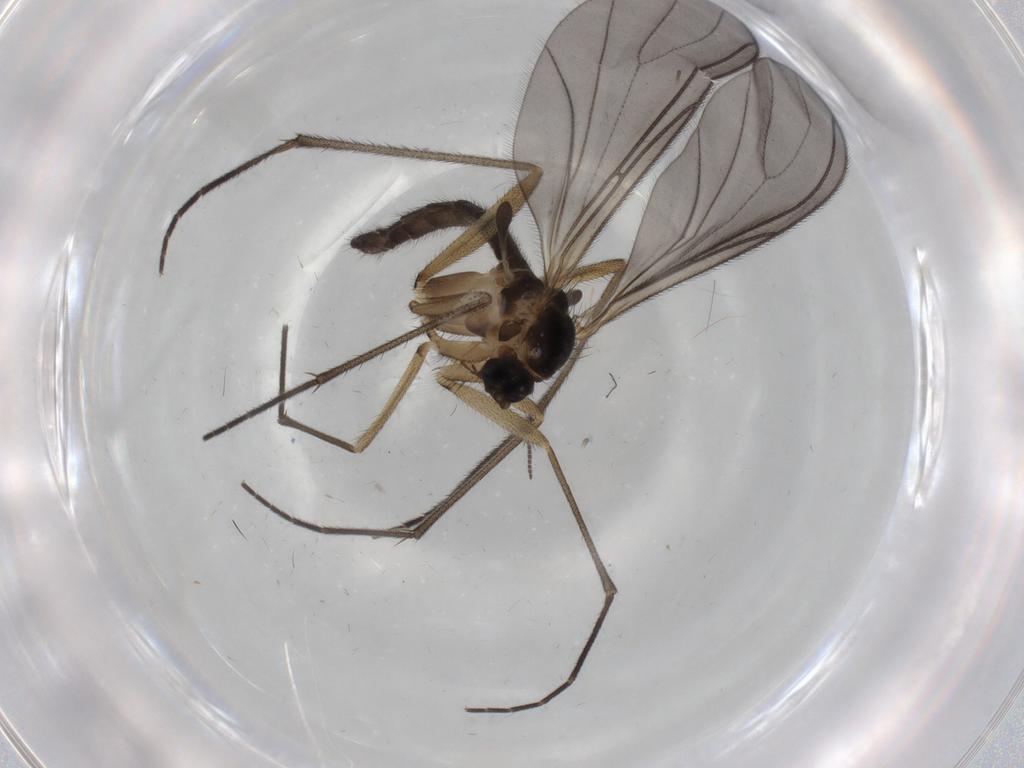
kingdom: Animalia
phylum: Arthropoda
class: Insecta
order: Diptera
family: Sciaridae
